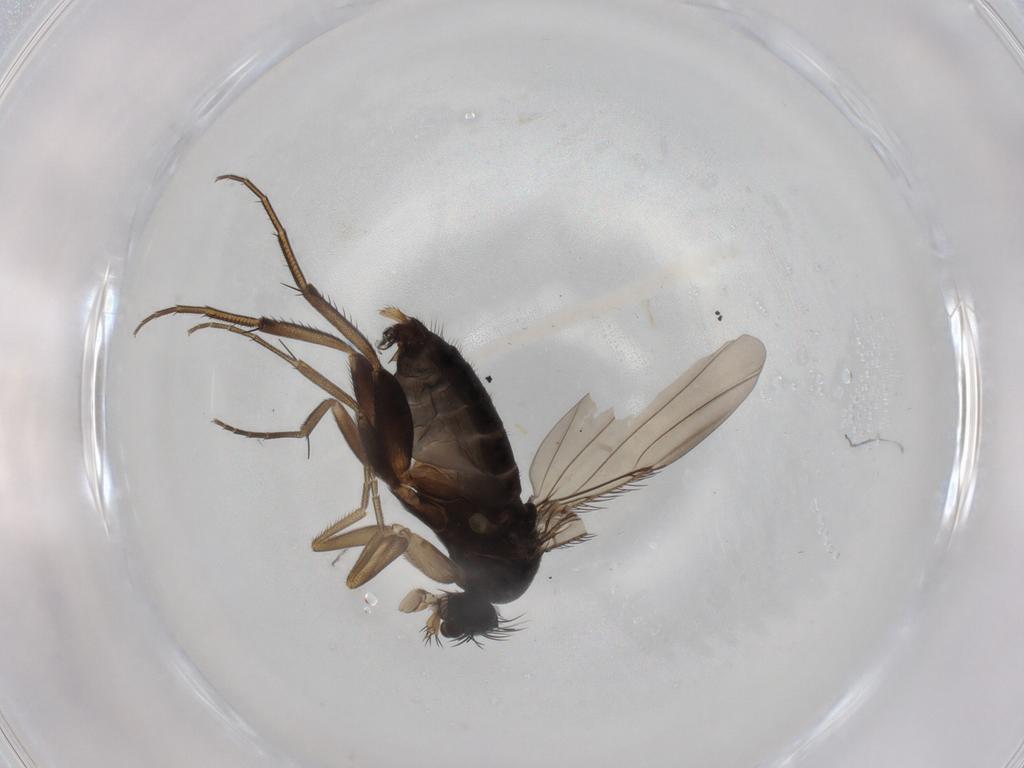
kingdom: Animalia
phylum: Arthropoda
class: Insecta
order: Diptera
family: Phoridae
